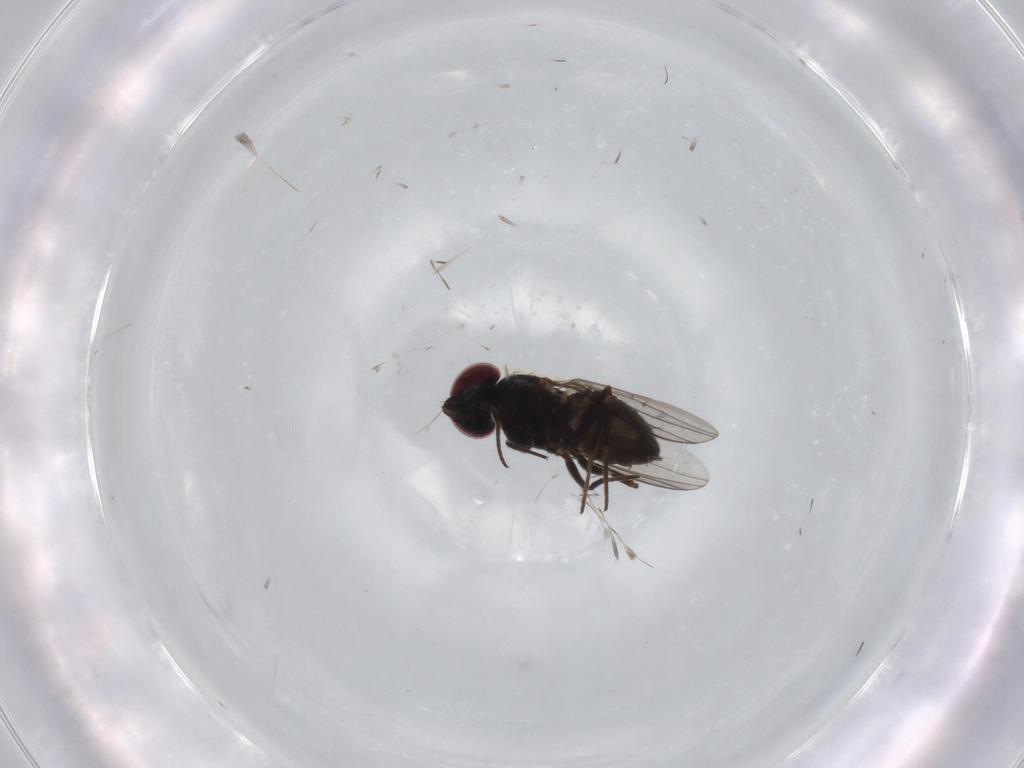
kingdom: Animalia
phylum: Arthropoda
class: Insecta
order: Diptera
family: Dolichopodidae
